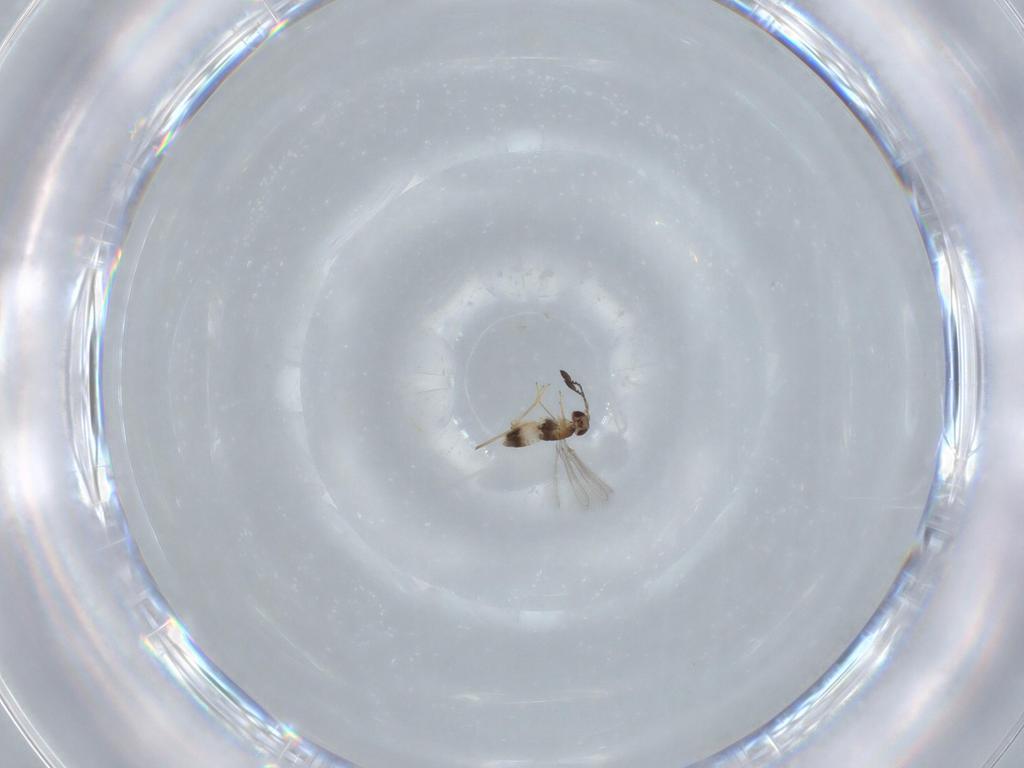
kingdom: Animalia
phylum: Arthropoda
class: Insecta
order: Hymenoptera
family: Mymaridae
